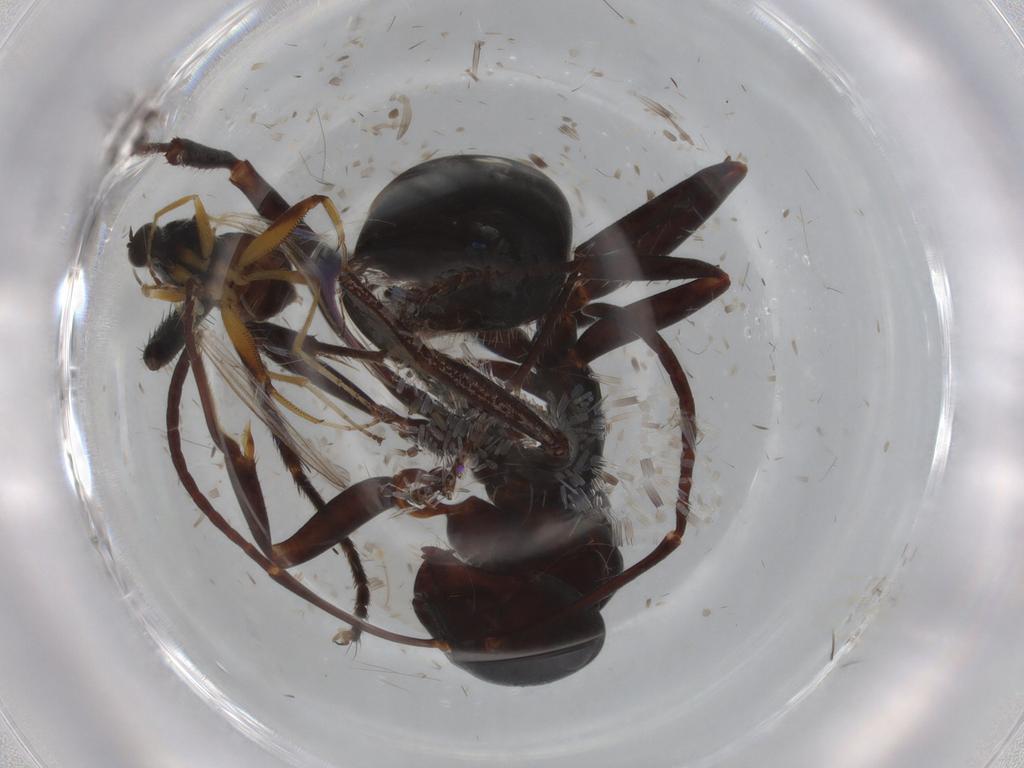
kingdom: Animalia
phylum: Arthropoda
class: Insecta
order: Hymenoptera
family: Formicidae
